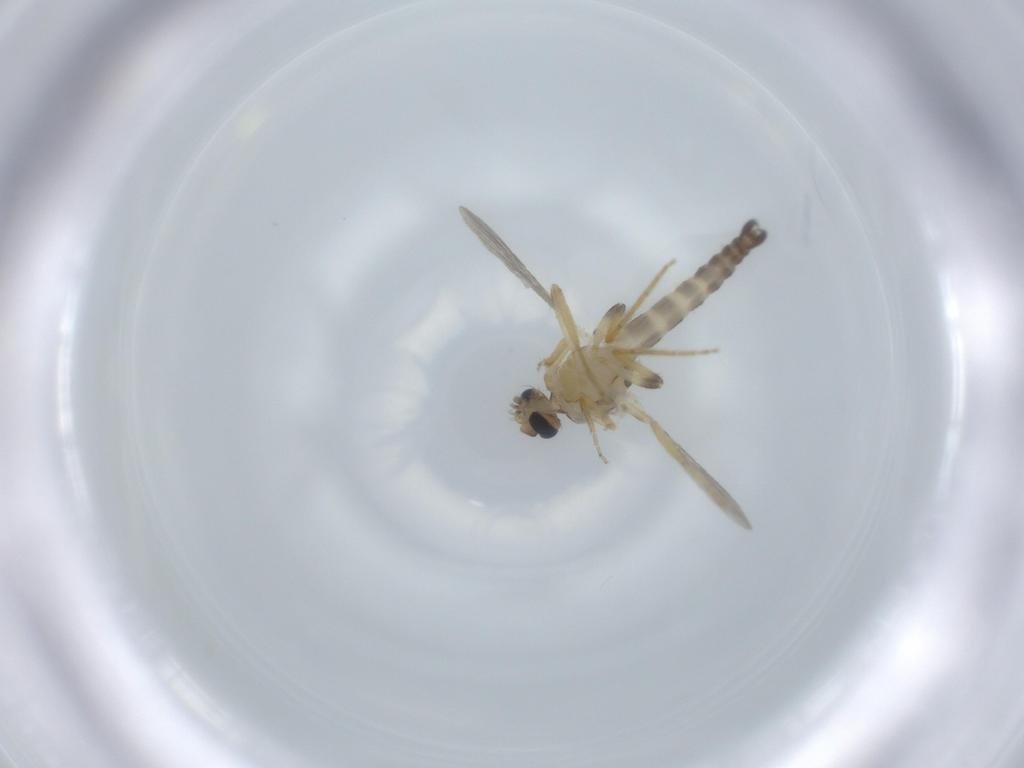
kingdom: Animalia
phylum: Arthropoda
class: Insecta
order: Diptera
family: Ceratopogonidae
